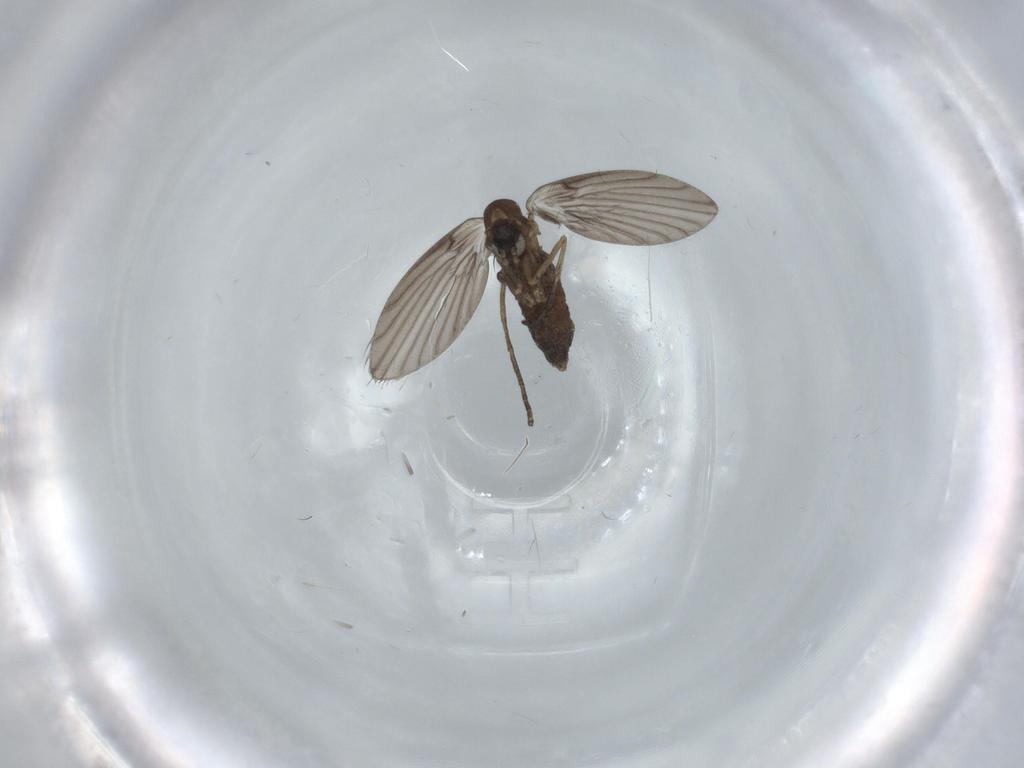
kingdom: Animalia
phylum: Arthropoda
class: Insecta
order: Diptera
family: Psychodidae
